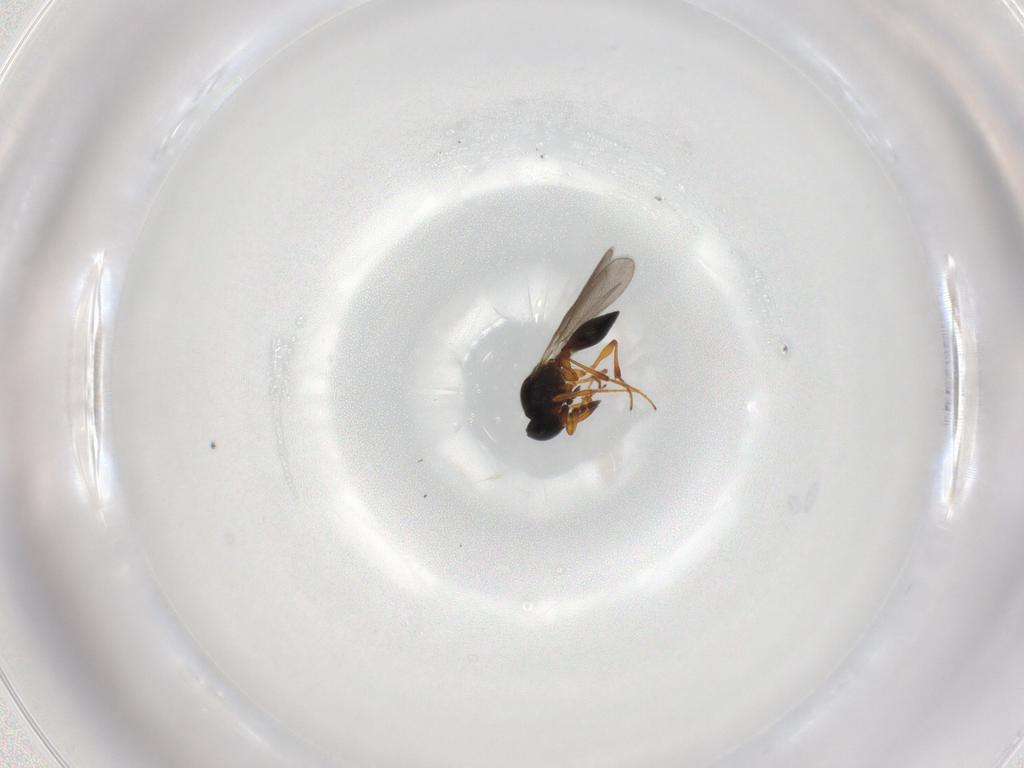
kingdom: Animalia
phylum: Arthropoda
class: Insecta
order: Hymenoptera
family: Platygastridae
